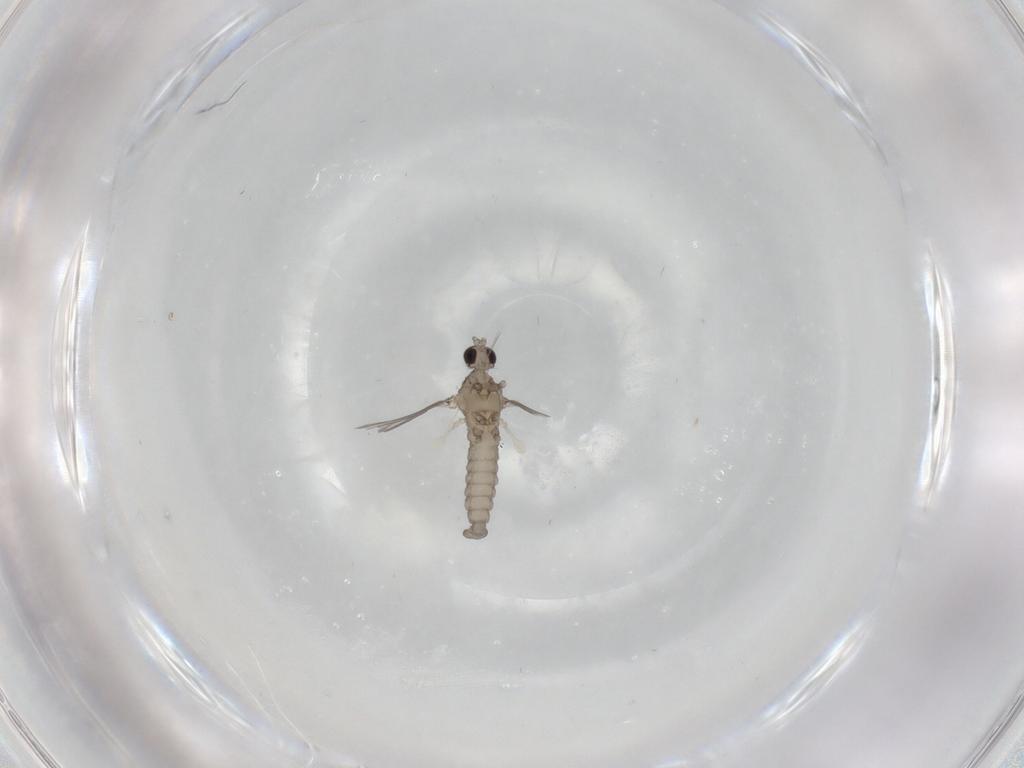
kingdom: Animalia
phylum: Arthropoda
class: Insecta
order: Diptera
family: Cecidomyiidae
